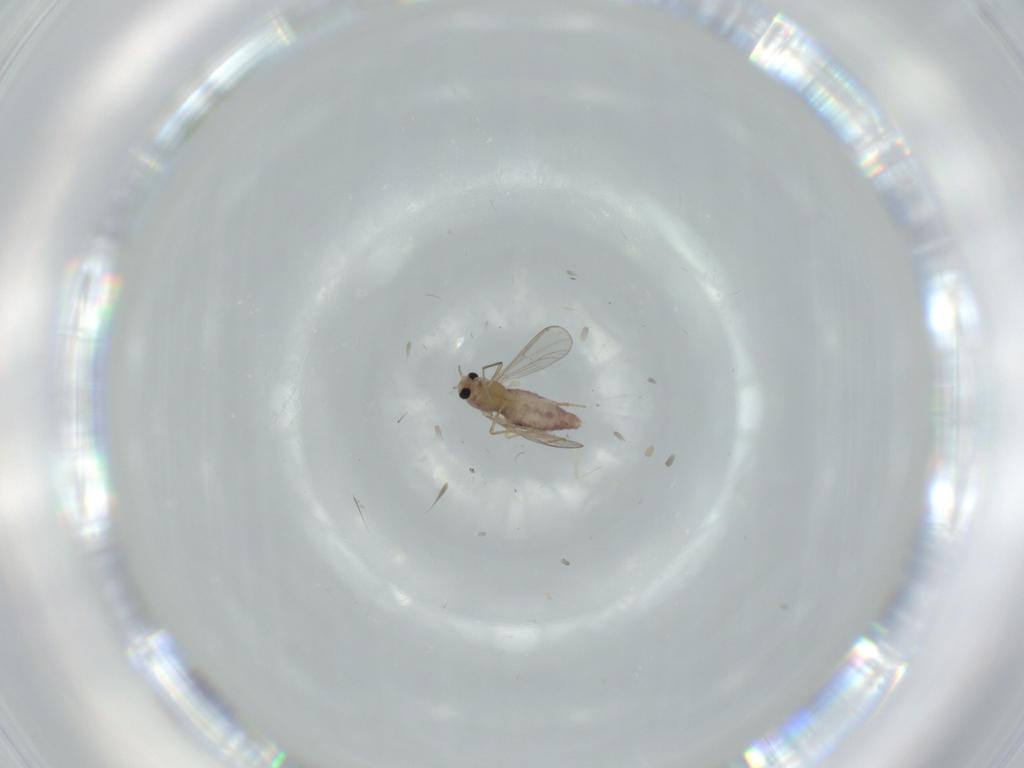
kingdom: Animalia
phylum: Arthropoda
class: Insecta
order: Diptera
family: Chironomidae
